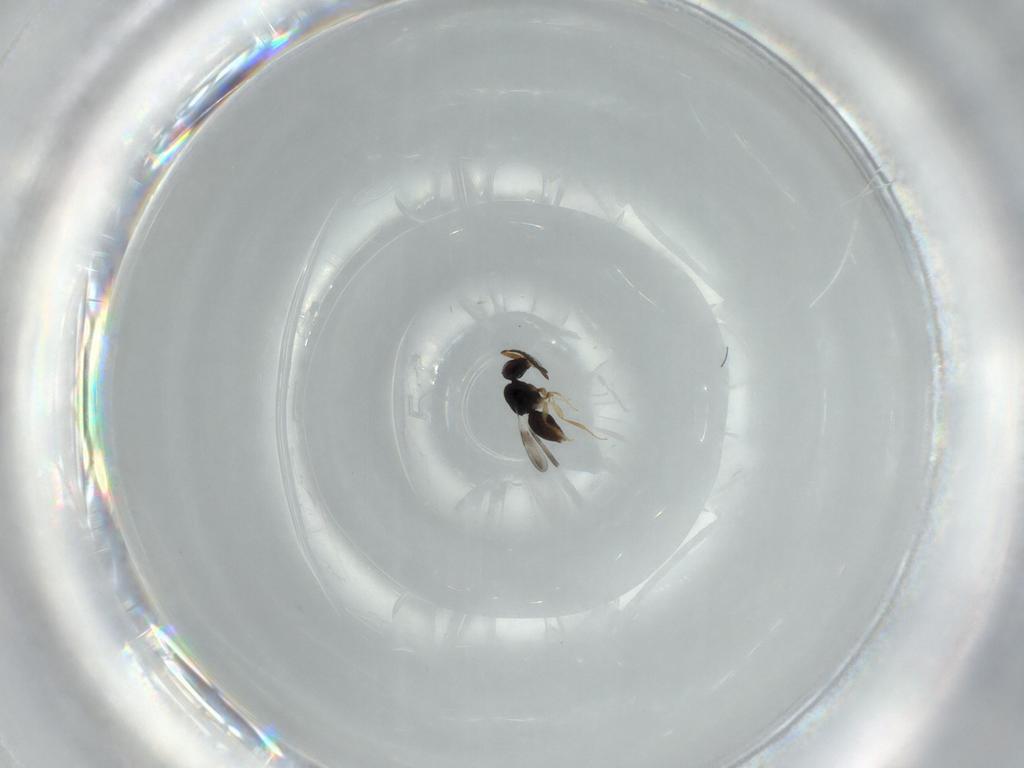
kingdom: Animalia
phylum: Arthropoda
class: Insecta
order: Hymenoptera
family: Ceraphronidae
